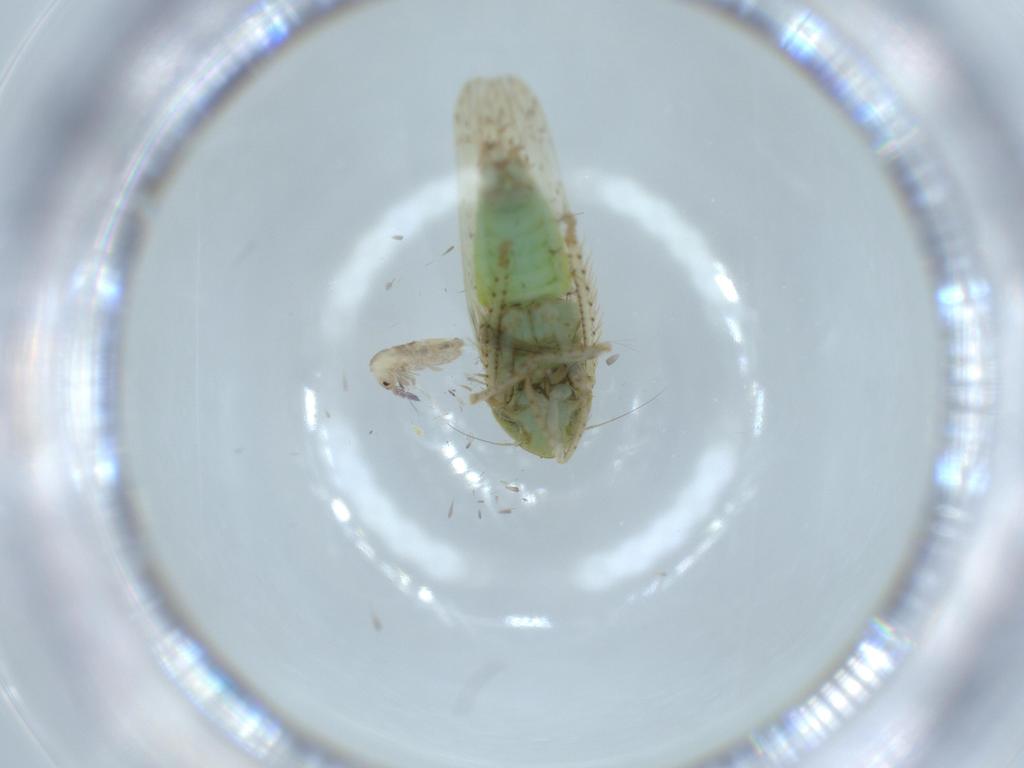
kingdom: Animalia
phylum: Arthropoda
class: Insecta
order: Hemiptera
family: Cicadellidae
